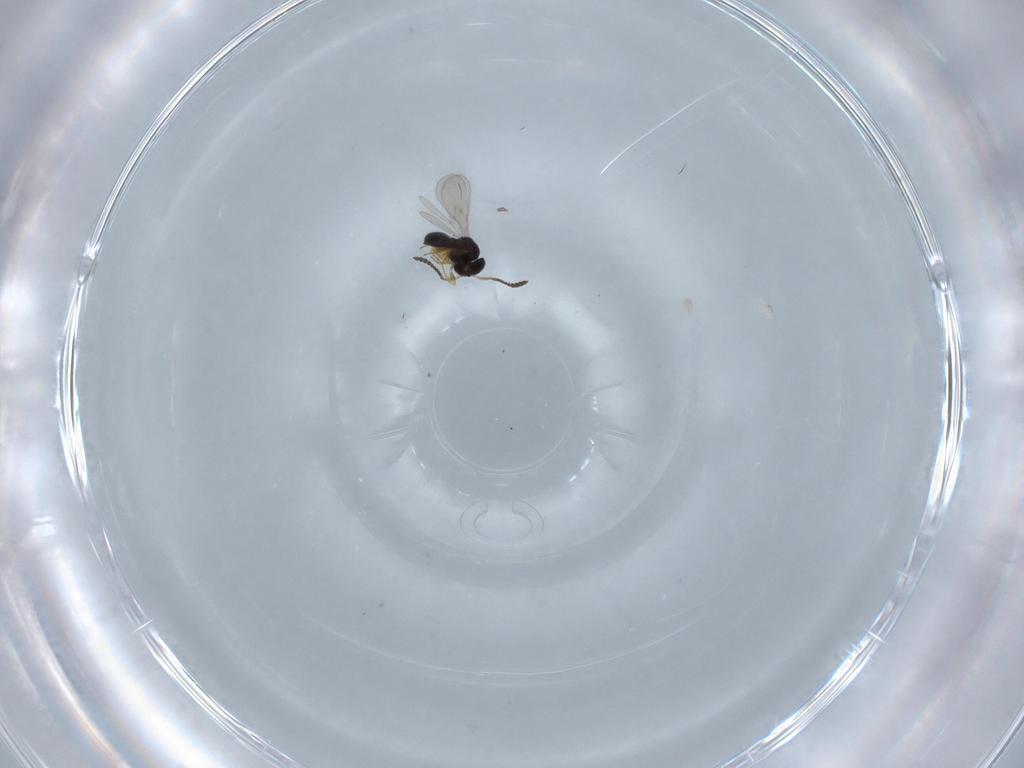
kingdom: Animalia
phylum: Arthropoda
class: Insecta
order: Hymenoptera
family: Scelionidae
